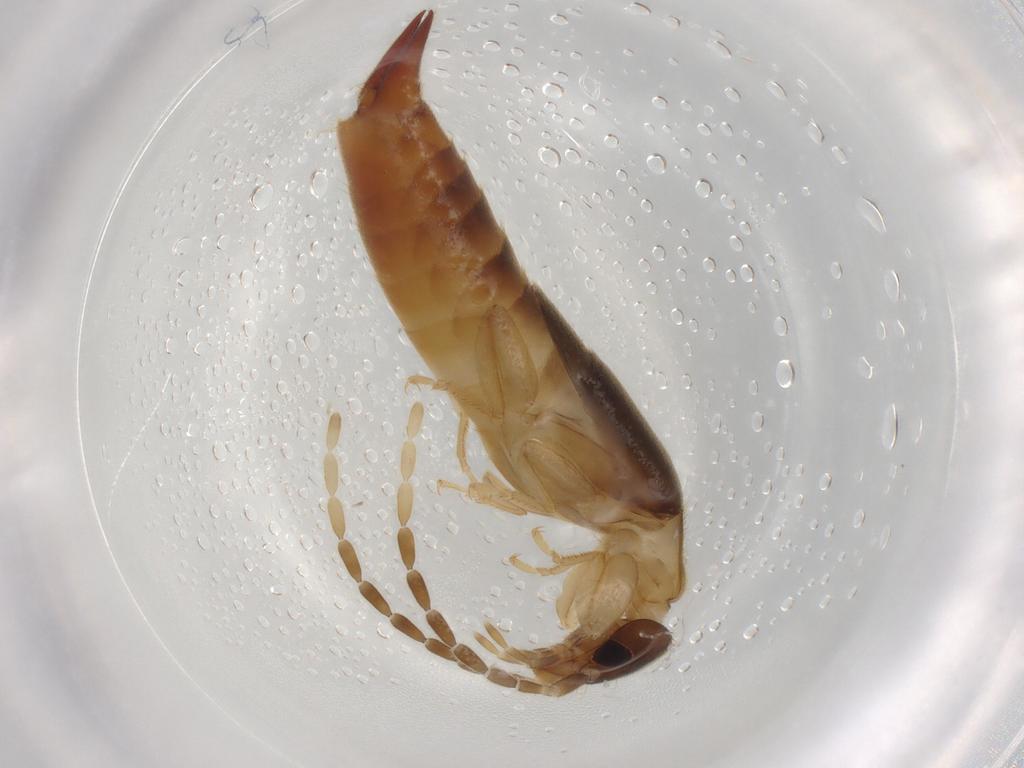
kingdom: Animalia
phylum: Arthropoda
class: Insecta
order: Dermaptera
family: Spongiphoridae
